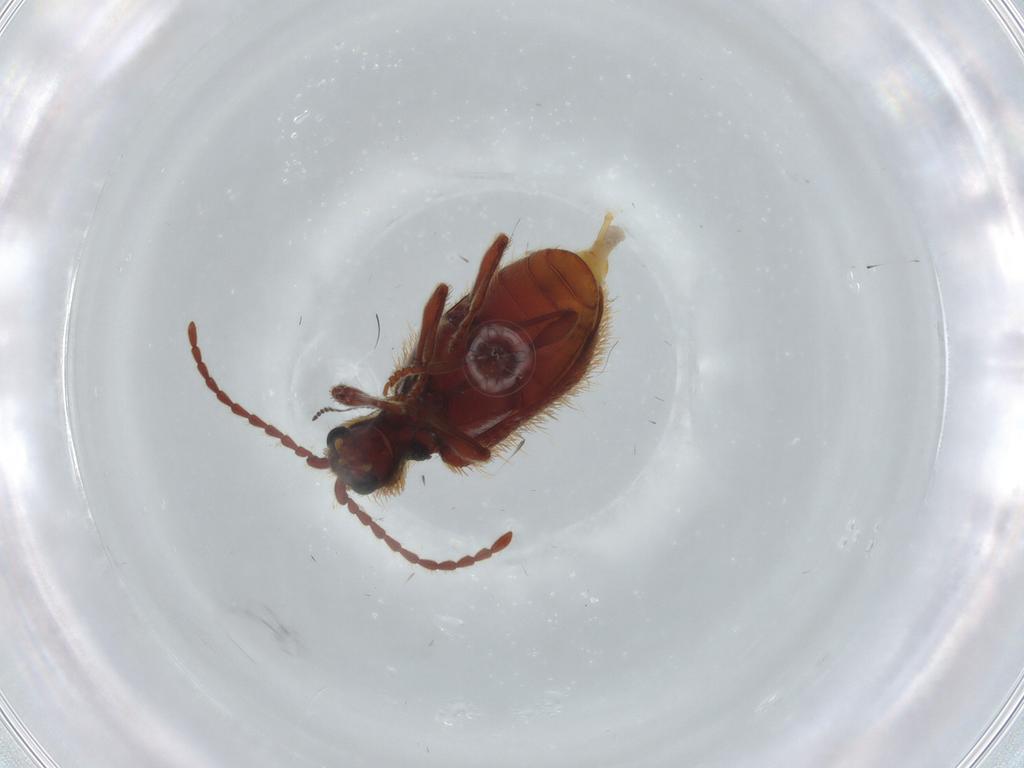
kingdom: Animalia
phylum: Arthropoda
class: Insecta
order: Coleoptera
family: Ptinidae
